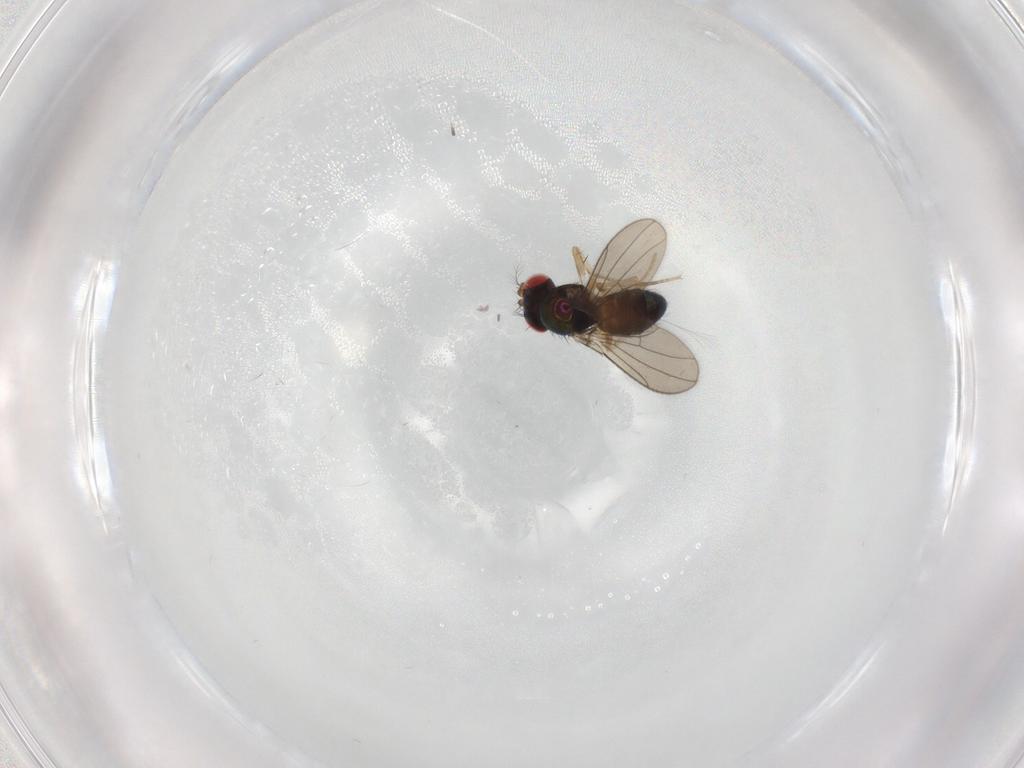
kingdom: Animalia
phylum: Arthropoda
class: Insecta
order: Diptera
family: Drosophilidae
